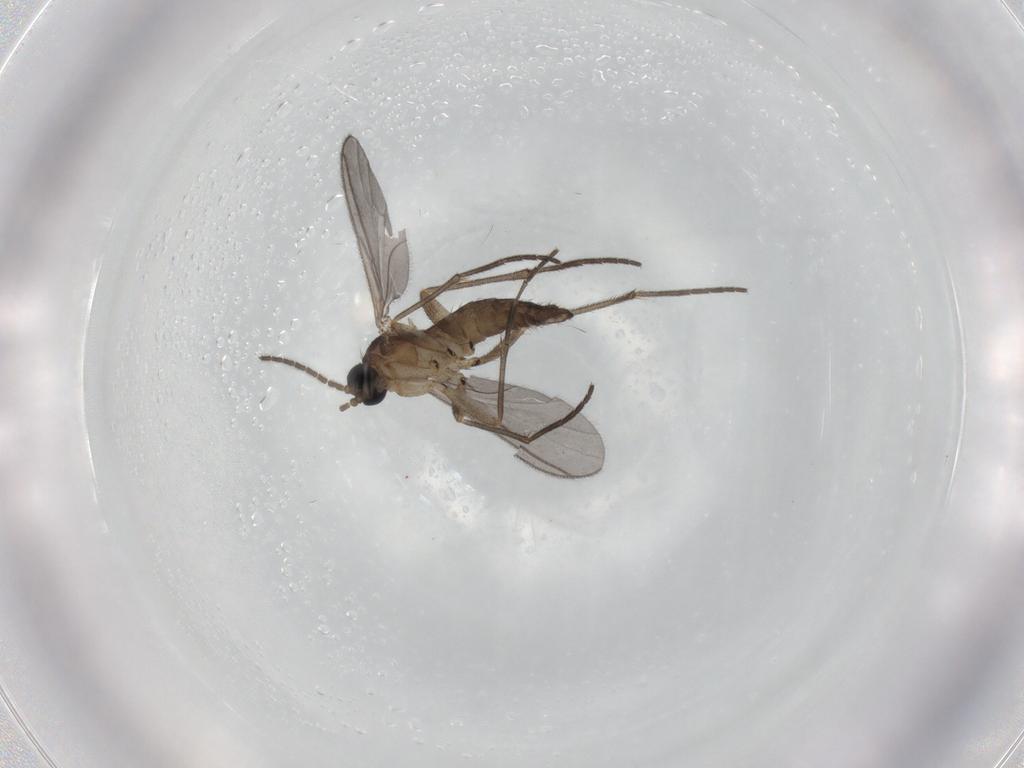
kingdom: Animalia
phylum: Arthropoda
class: Insecta
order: Diptera
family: Sciaridae
